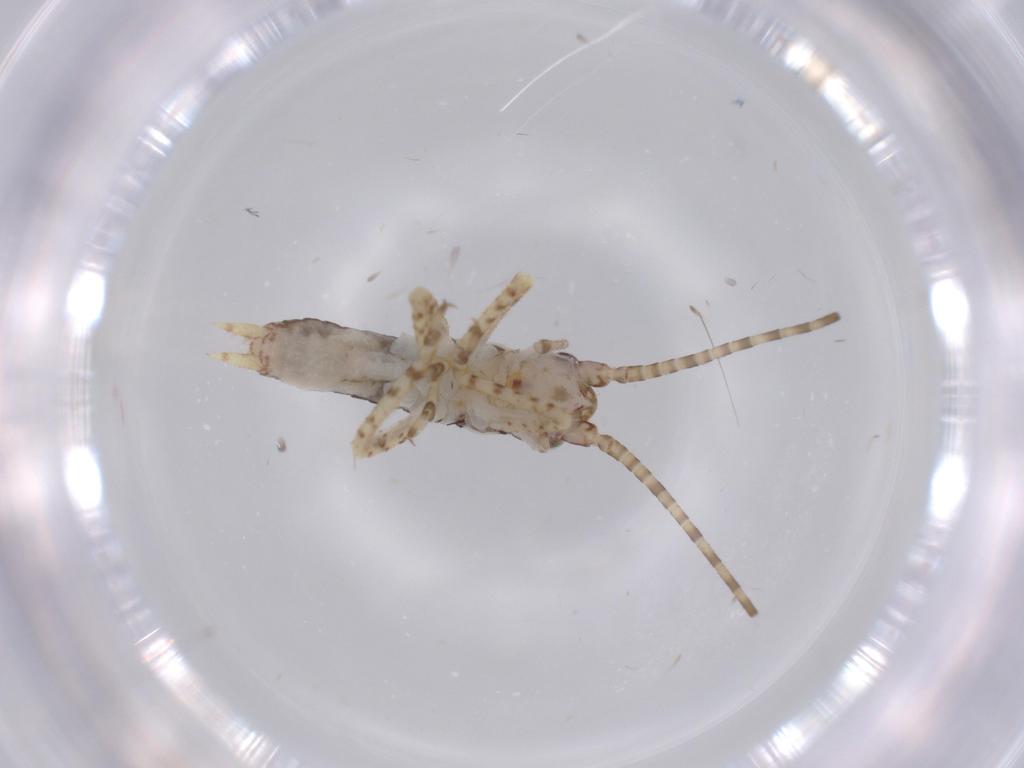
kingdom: Animalia
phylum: Arthropoda
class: Insecta
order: Orthoptera
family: Gryllidae
